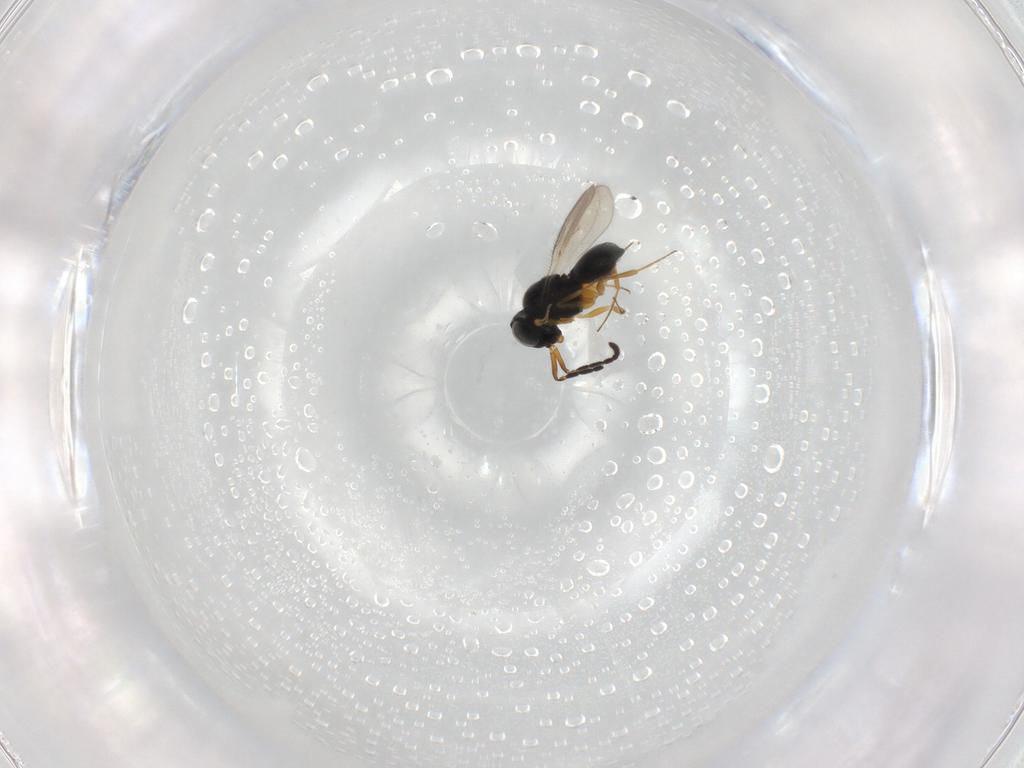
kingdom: Animalia
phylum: Arthropoda
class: Insecta
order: Hymenoptera
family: Scelionidae
